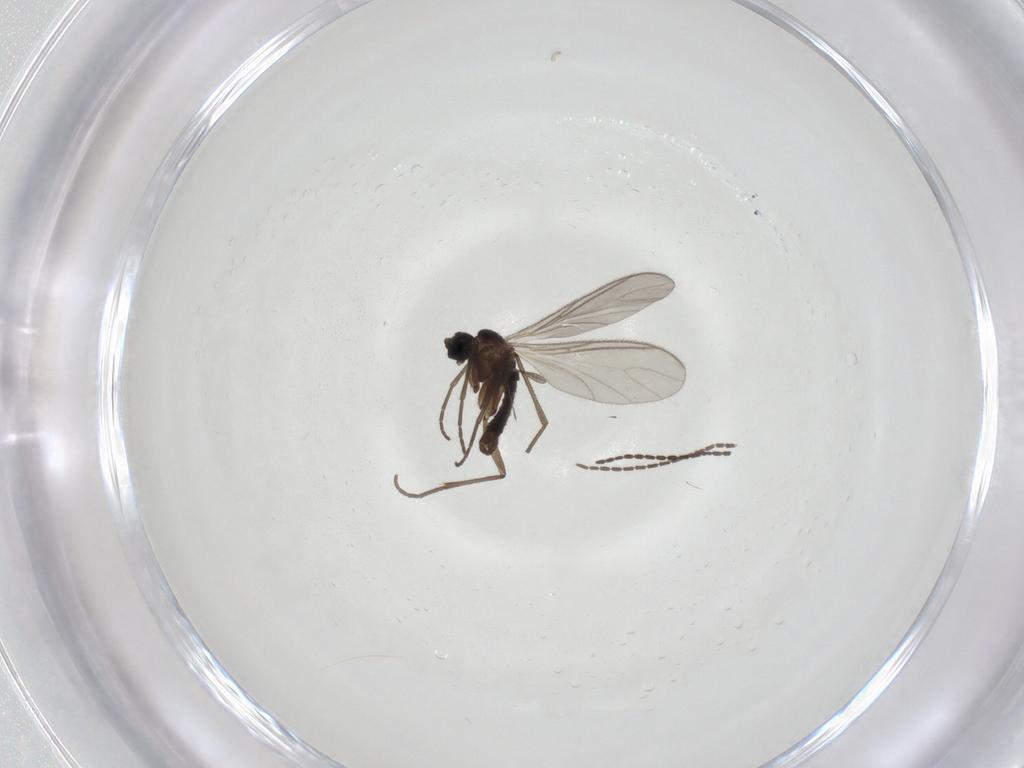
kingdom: Animalia
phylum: Arthropoda
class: Insecta
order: Diptera
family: Sciaridae
